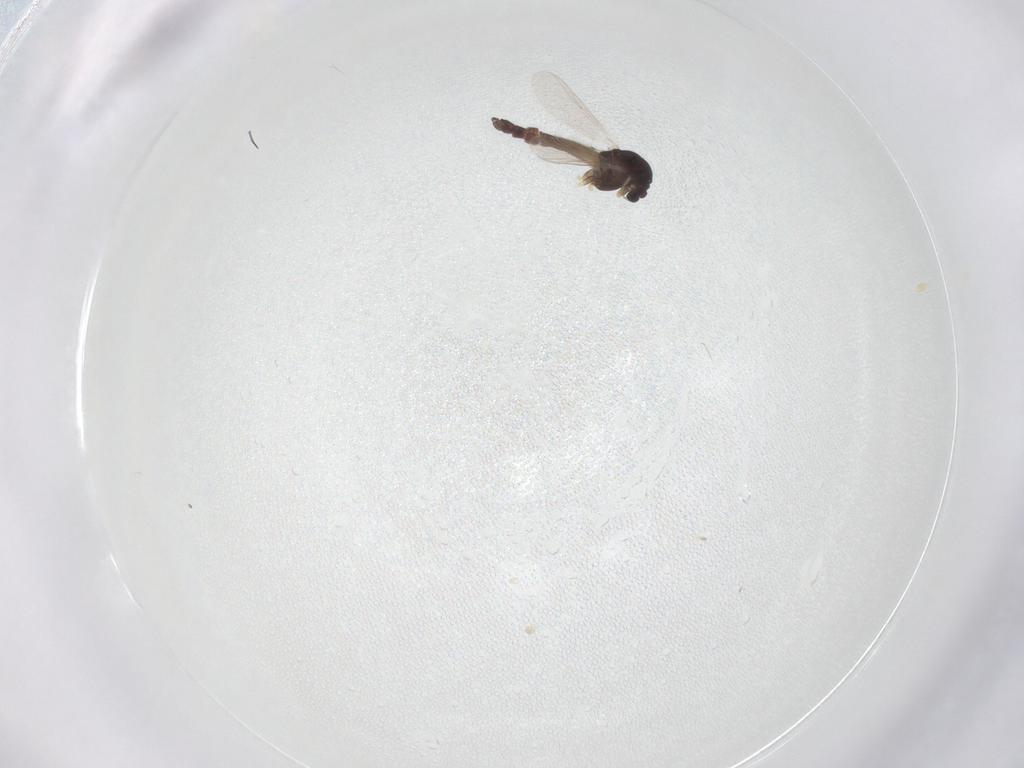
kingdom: Animalia
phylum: Arthropoda
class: Insecta
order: Diptera
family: Chironomidae
